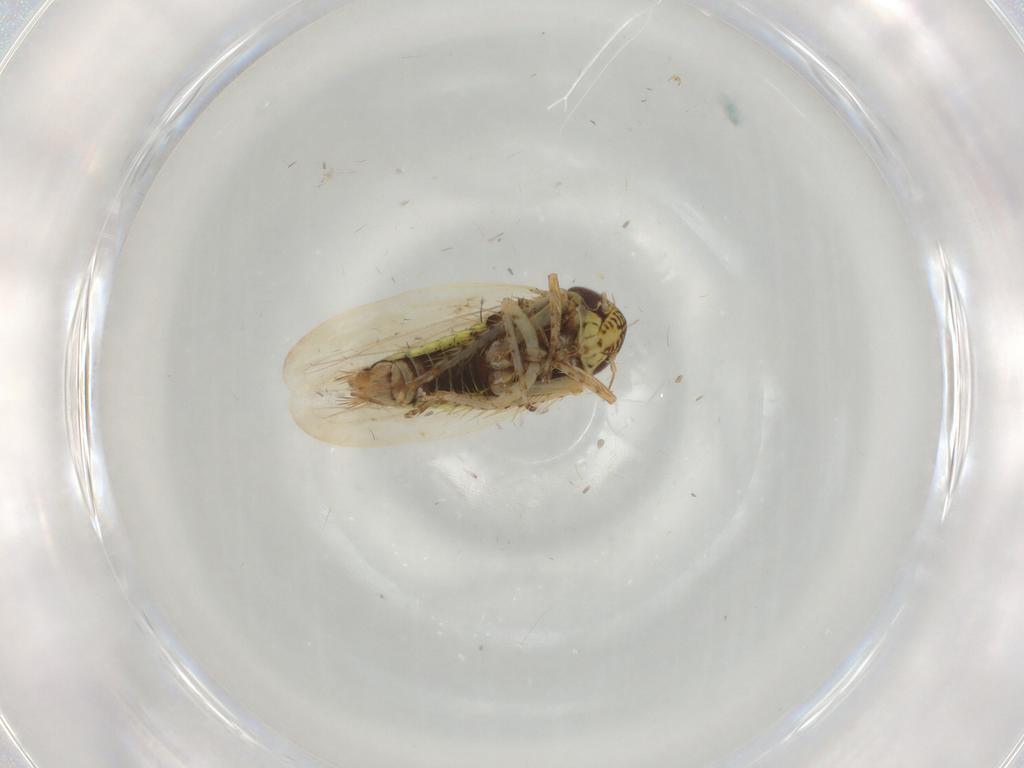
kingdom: Animalia
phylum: Arthropoda
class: Insecta
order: Hemiptera
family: Cicadellidae
